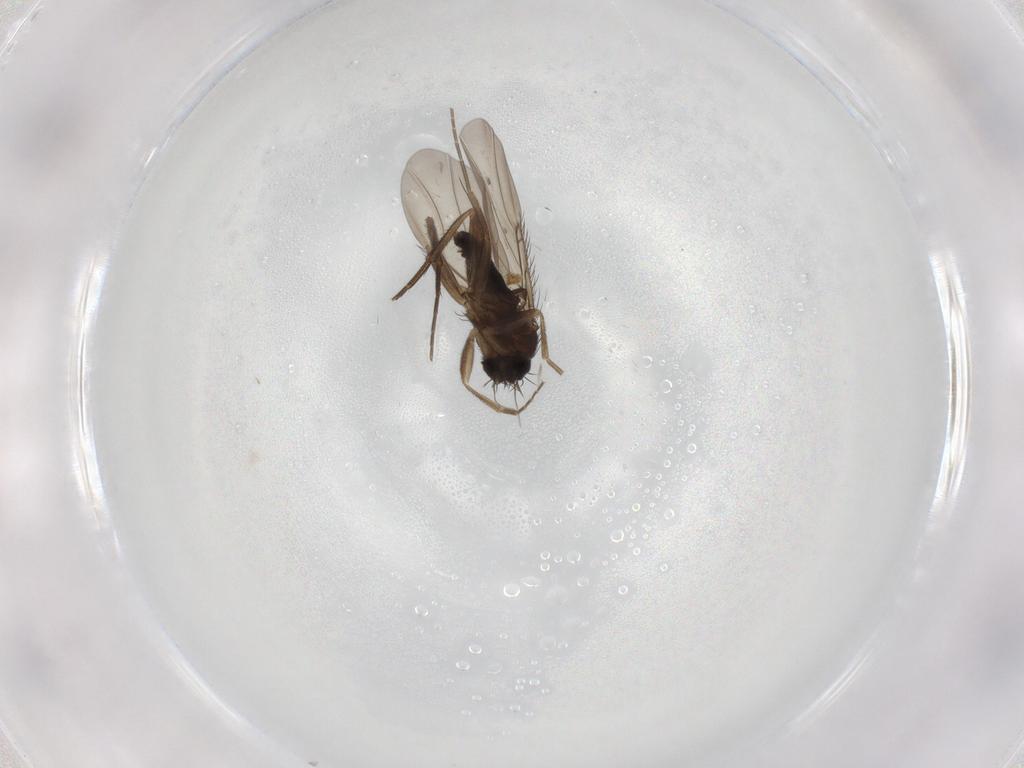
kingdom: Animalia
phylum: Arthropoda
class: Insecta
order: Diptera
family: Phoridae
